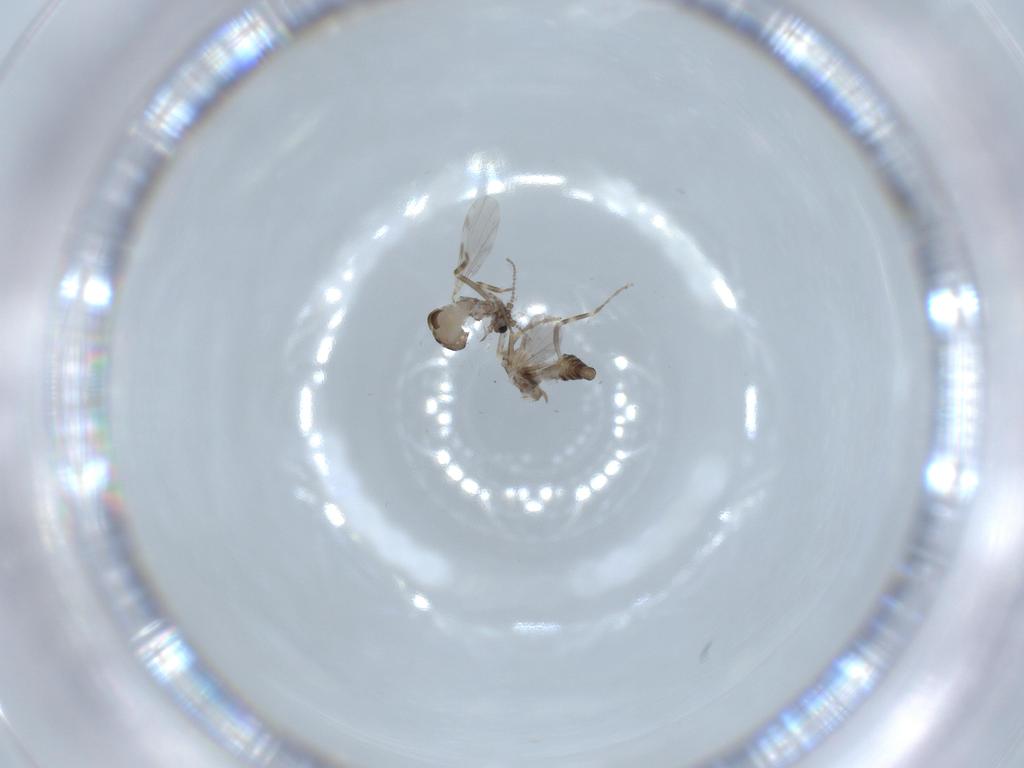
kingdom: Animalia
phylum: Arthropoda
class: Insecta
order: Diptera
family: Ceratopogonidae
